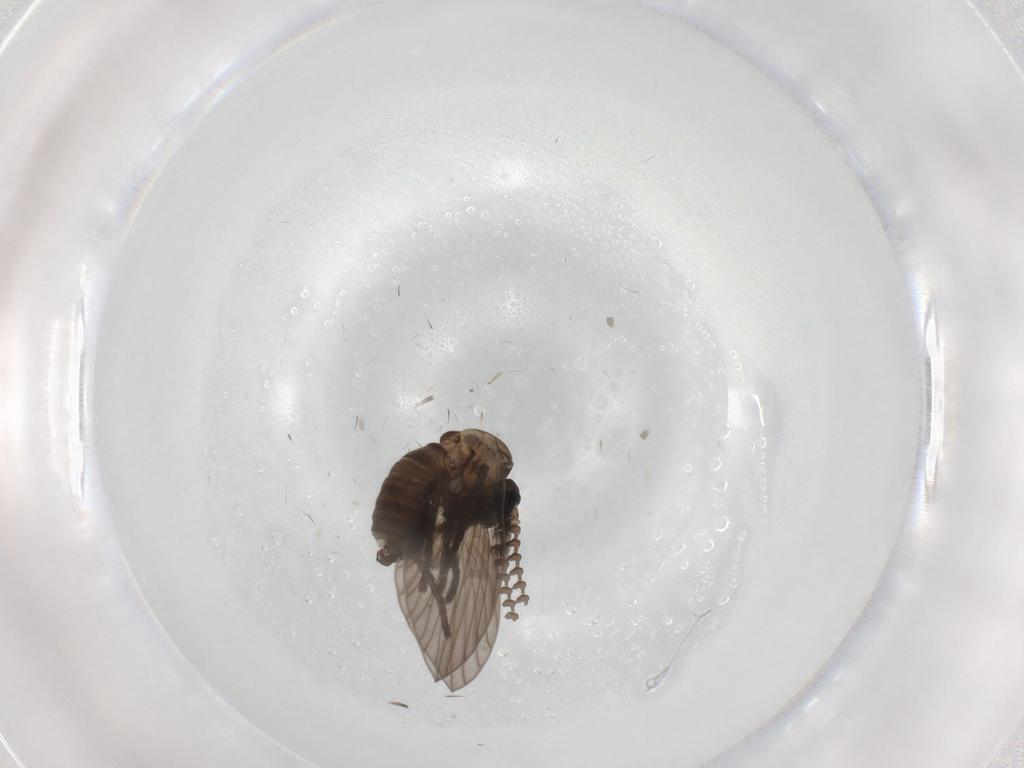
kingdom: Animalia
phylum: Arthropoda
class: Insecta
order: Diptera
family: Psychodidae
